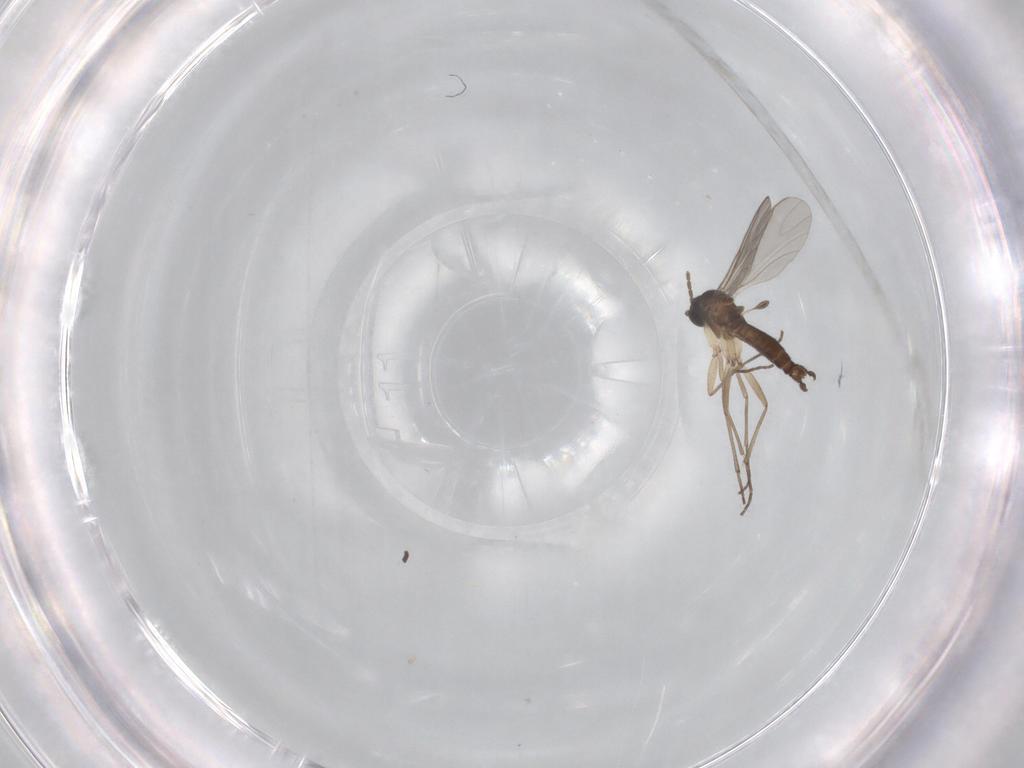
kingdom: Animalia
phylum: Arthropoda
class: Insecta
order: Diptera
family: Sciaridae
